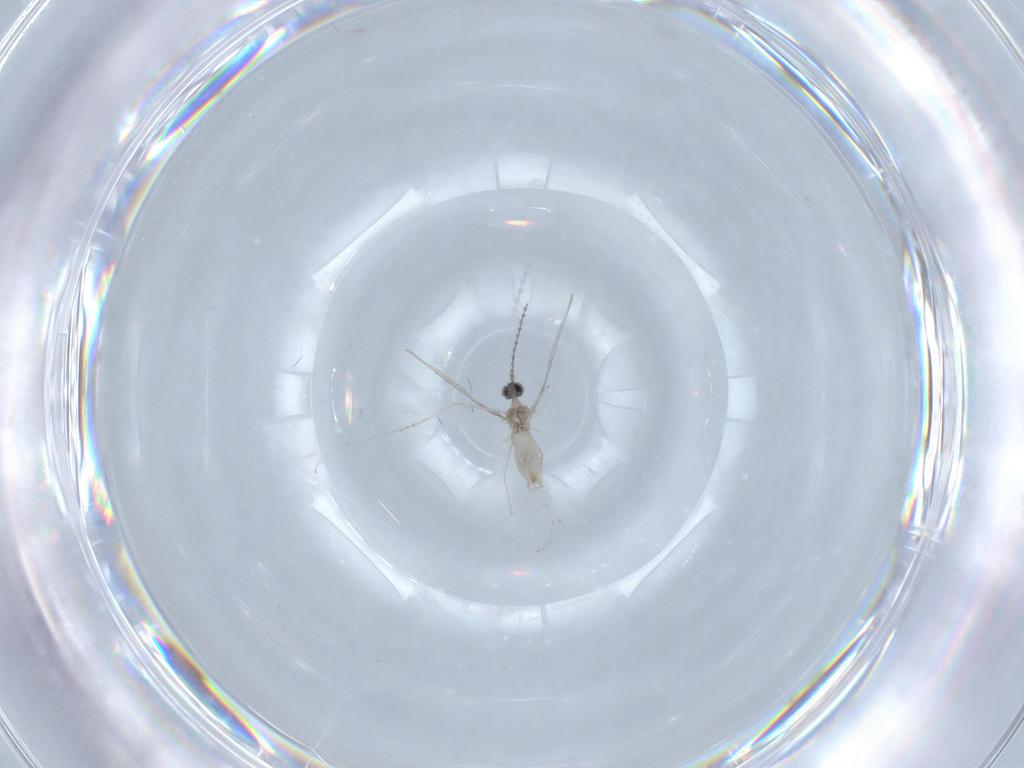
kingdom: Animalia
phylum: Arthropoda
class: Insecta
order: Diptera
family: Cecidomyiidae
